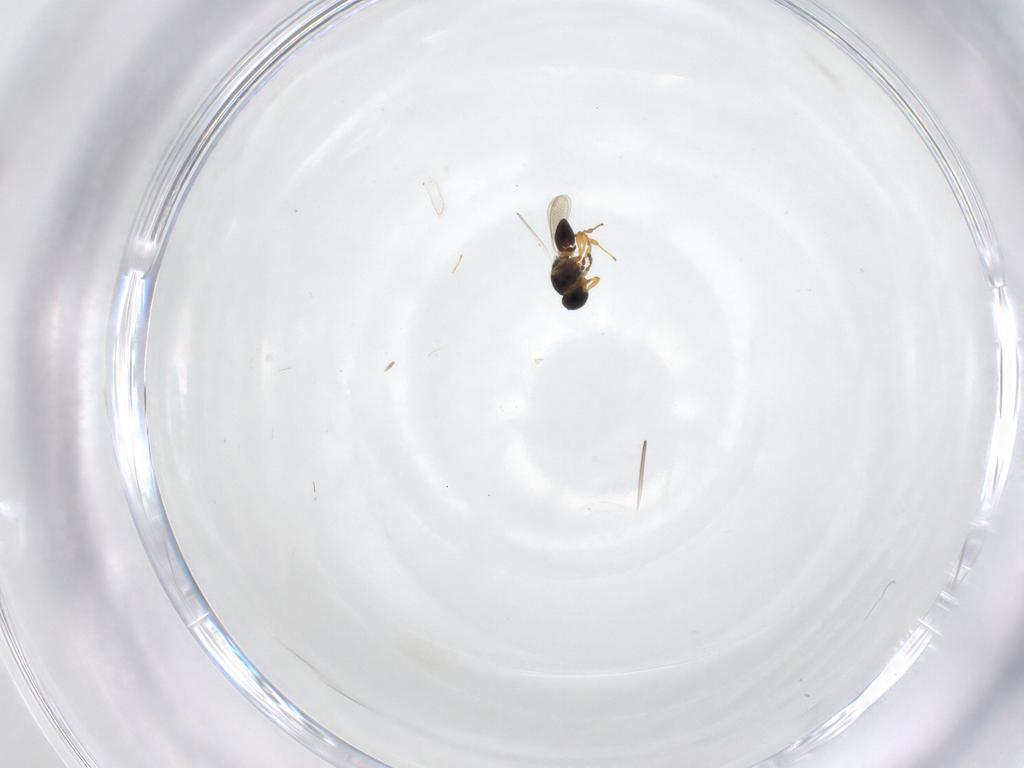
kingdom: Animalia
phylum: Arthropoda
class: Insecta
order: Hymenoptera
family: Platygastridae
